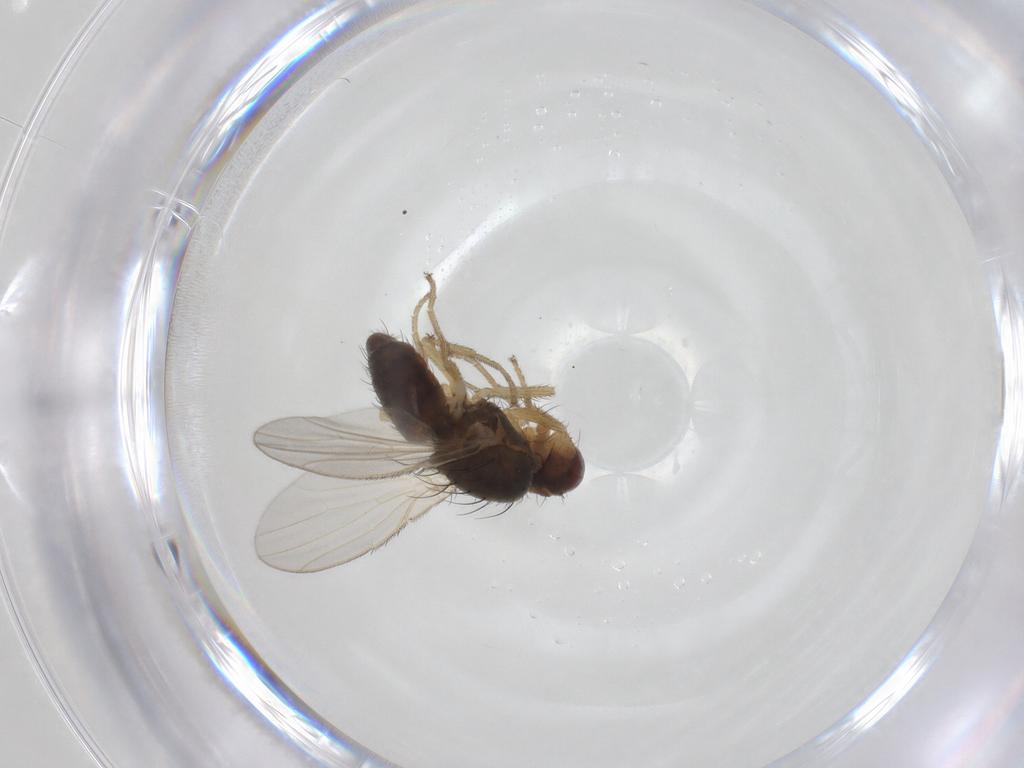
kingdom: Animalia
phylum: Arthropoda
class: Insecta
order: Diptera
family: Heleomyzidae
